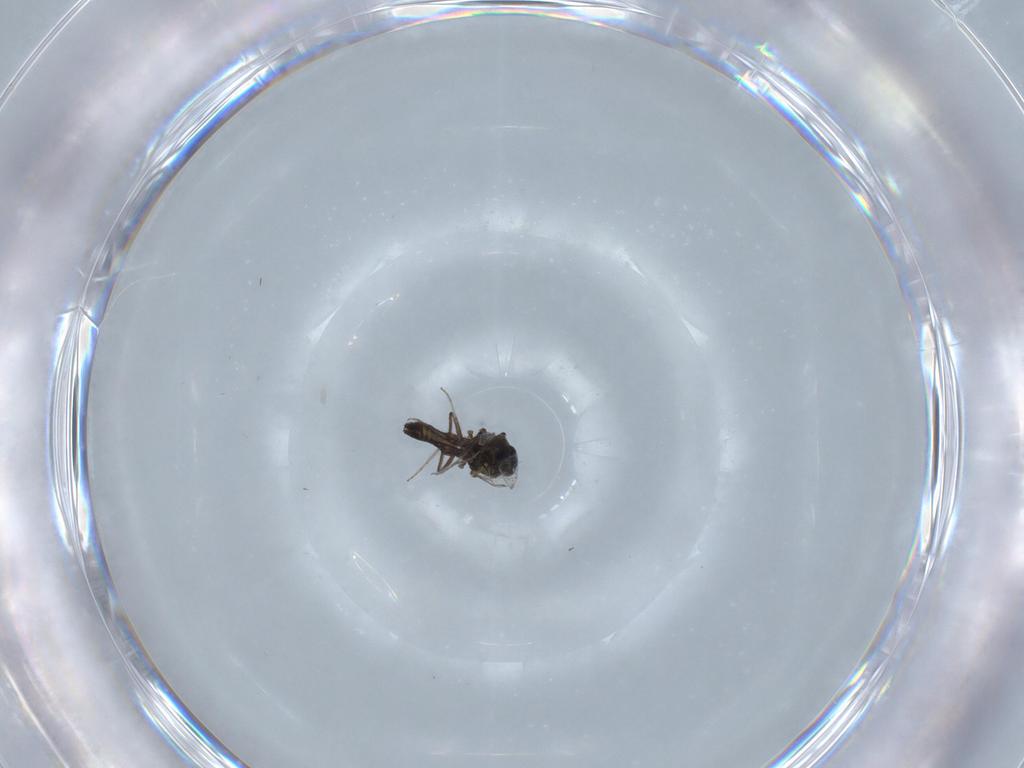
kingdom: Animalia
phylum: Arthropoda
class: Insecta
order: Diptera
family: Ceratopogonidae
